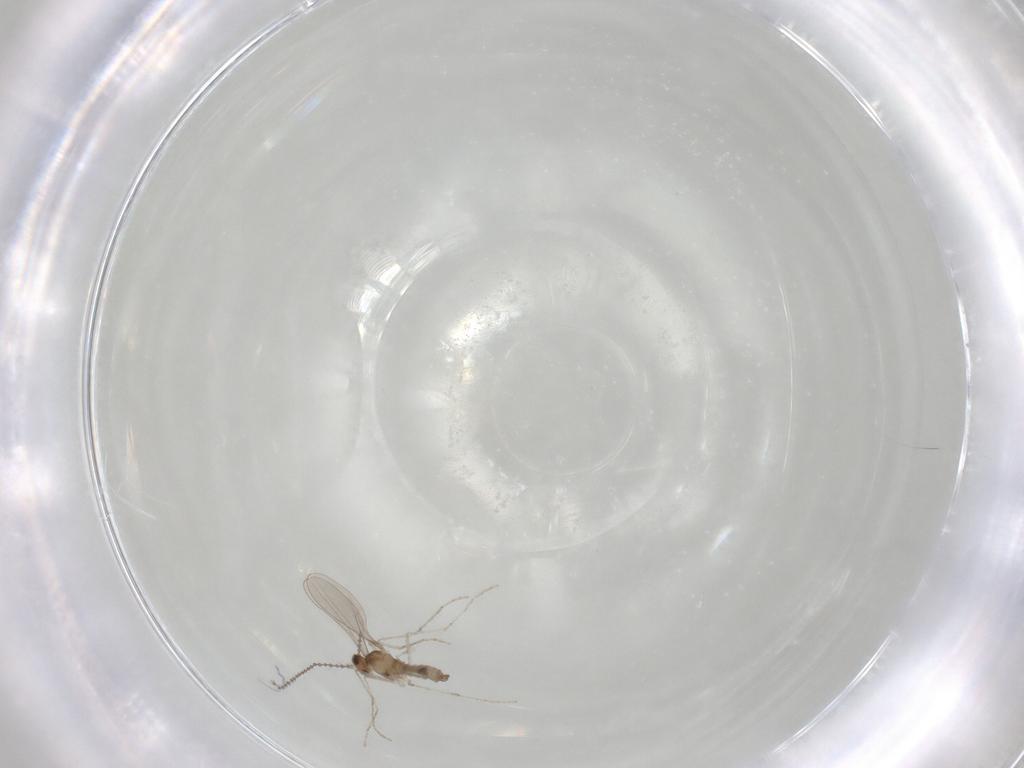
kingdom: Animalia
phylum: Arthropoda
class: Insecta
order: Diptera
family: Cecidomyiidae
